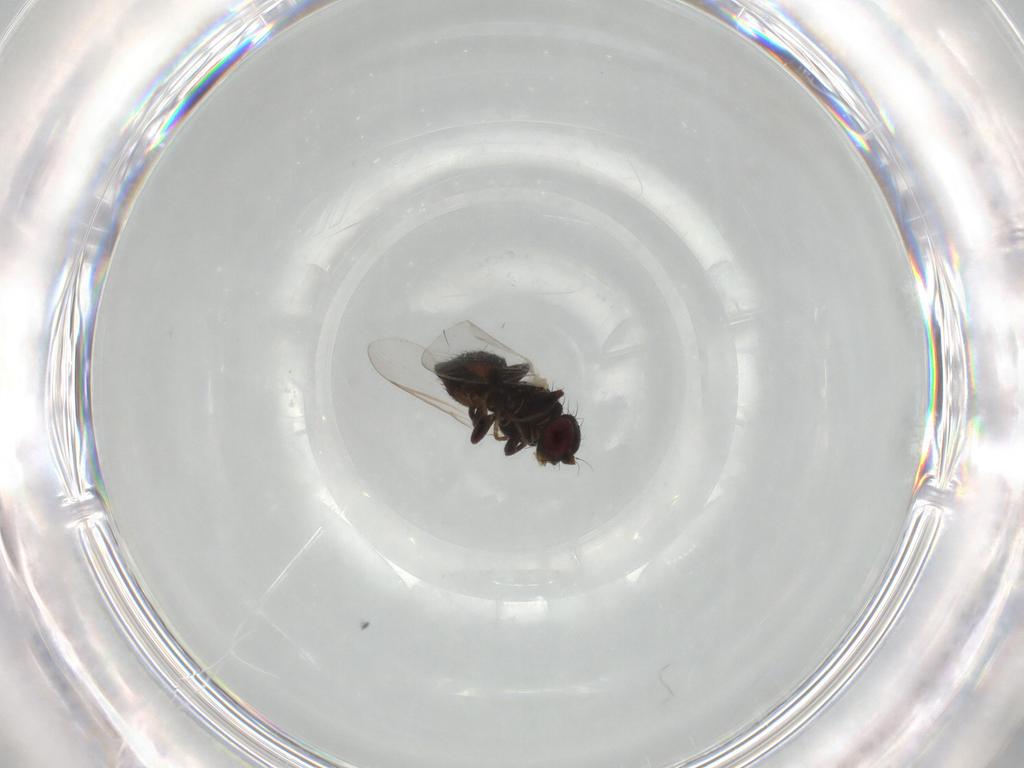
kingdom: Animalia
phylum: Arthropoda
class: Insecta
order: Diptera
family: Agromyzidae
